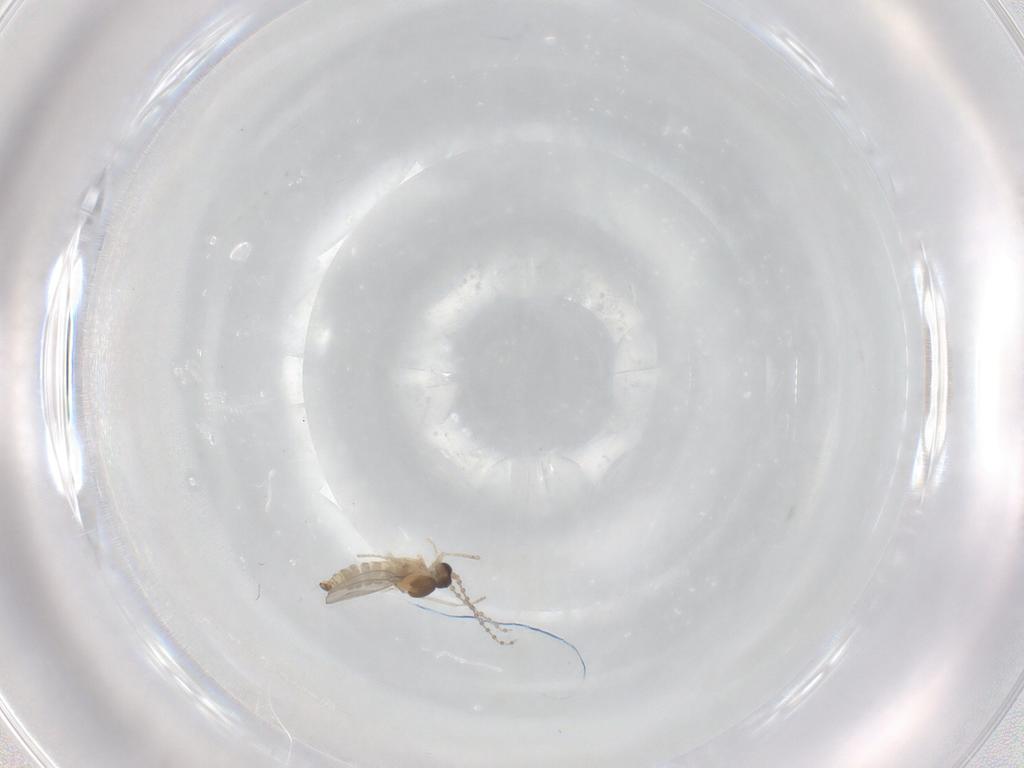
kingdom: Animalia
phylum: Arthropoda
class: Insecta
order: Diptera
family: Cecidomyiidae
